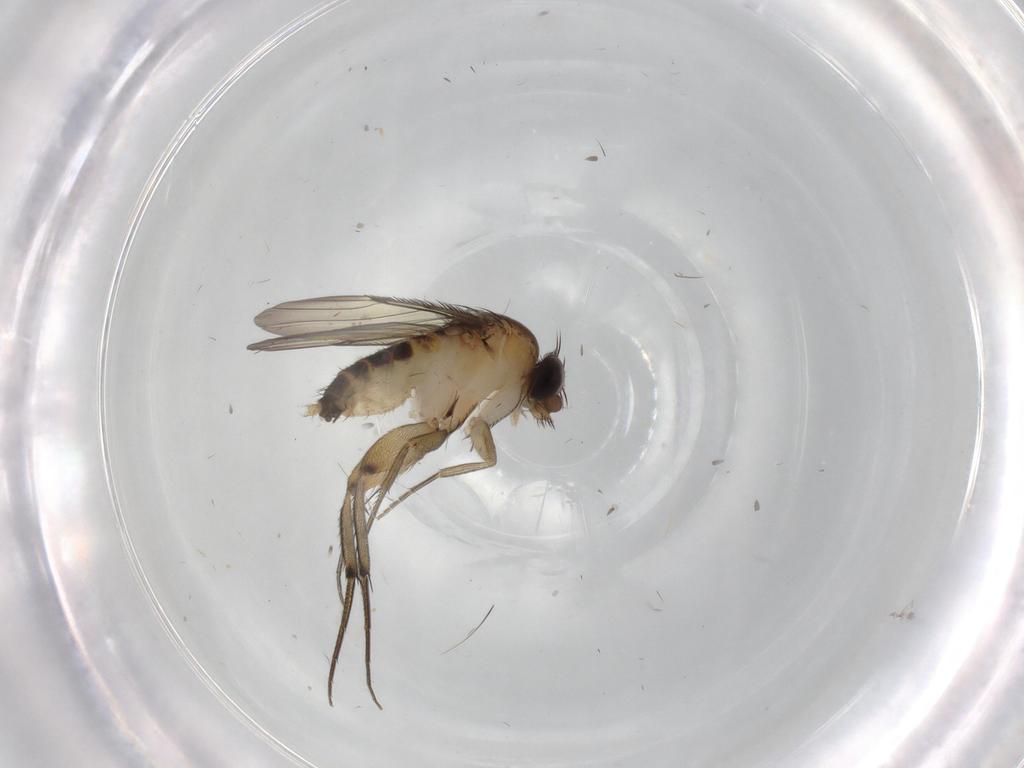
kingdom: Animalia
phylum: Arthropoda
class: Insecta
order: Diptera
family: Phoridae
